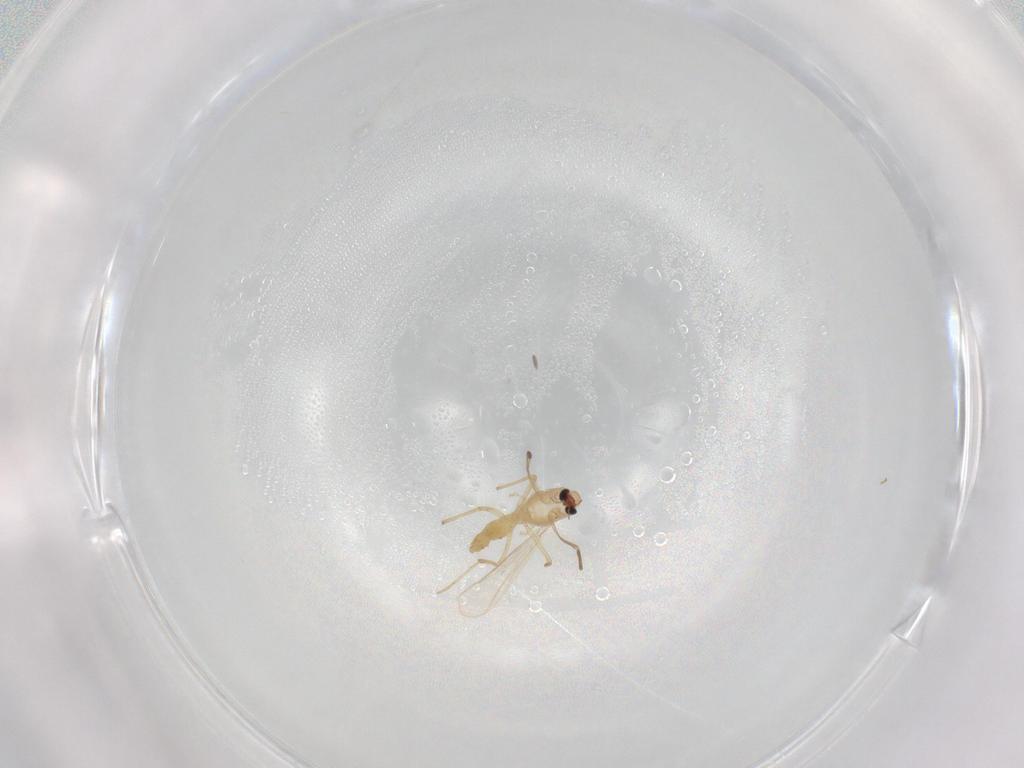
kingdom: Animalia
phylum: Arthropoda
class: Insecta
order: Diptera
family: Chironomidae
